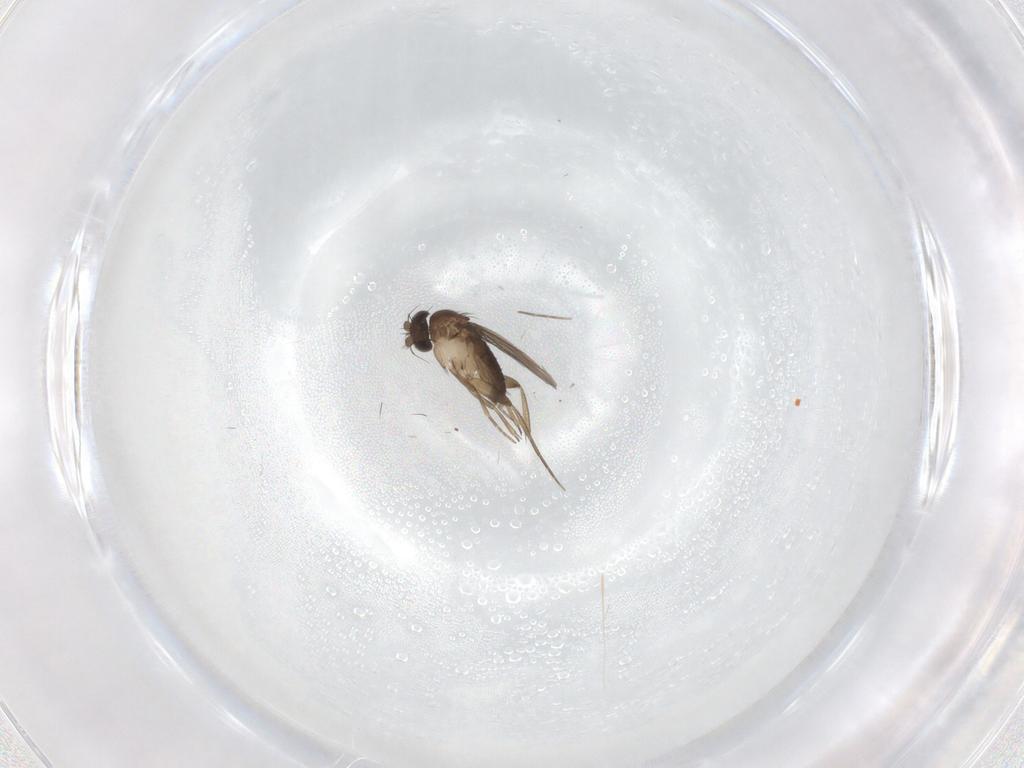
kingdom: Animalia
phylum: Arthropoda
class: Insecta
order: Diptera
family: Phoridae
